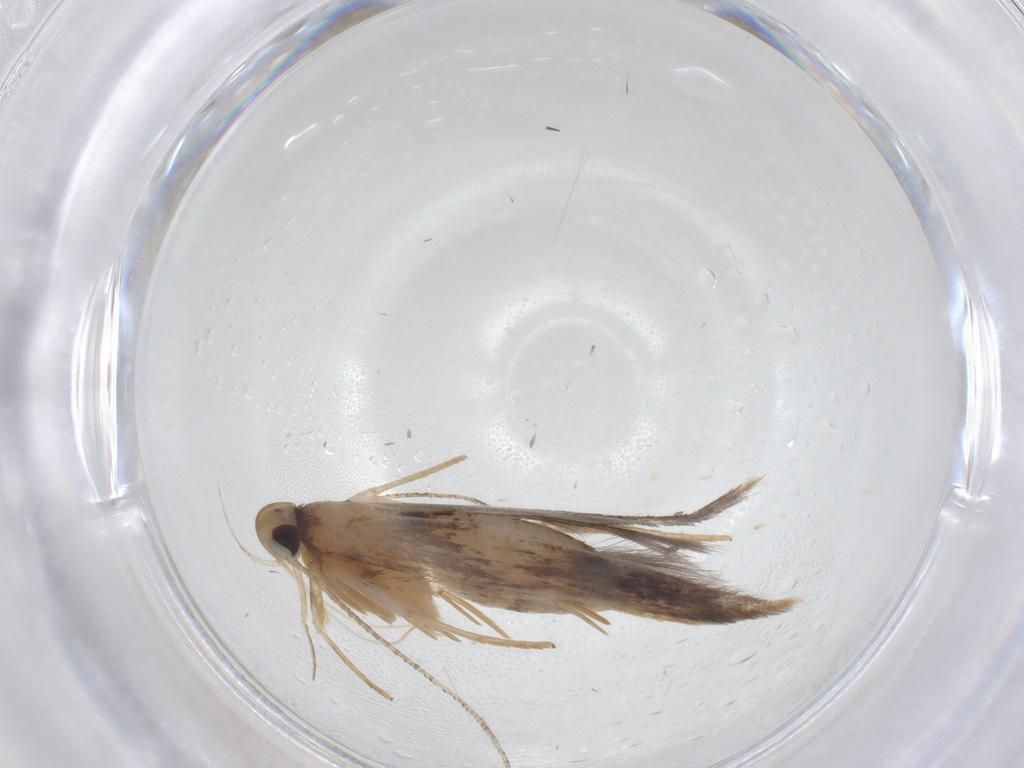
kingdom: Animalia
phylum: Arthropoda
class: Insecta
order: Lepidoptera
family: Cosmopterigidae
